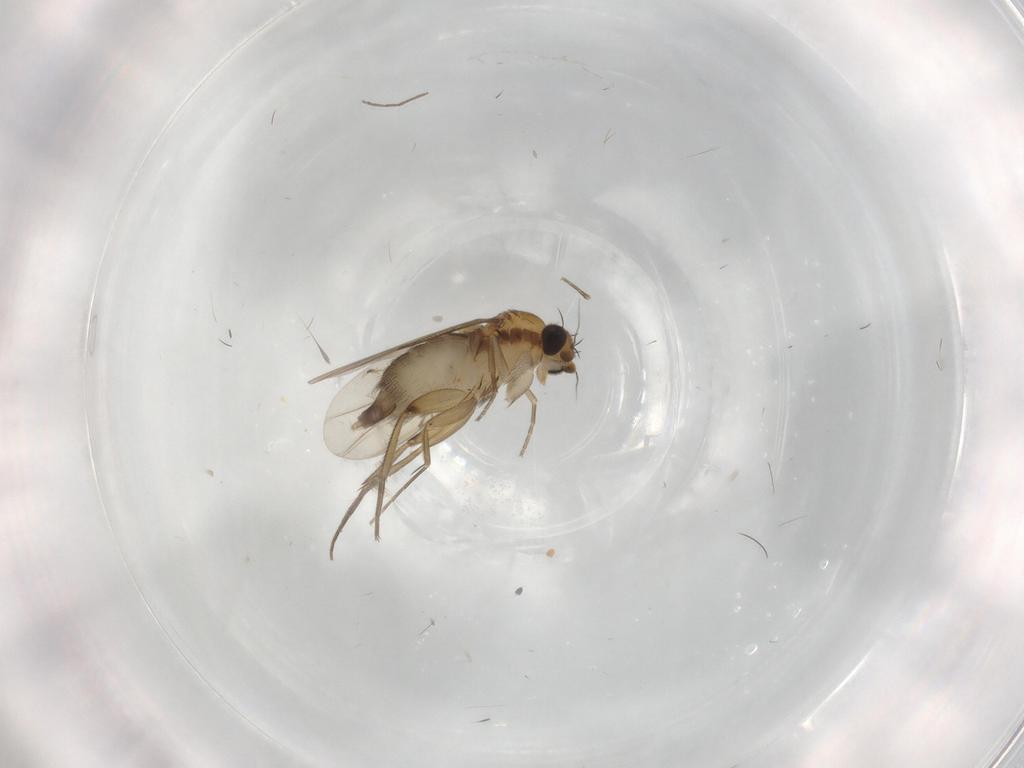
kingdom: Animalia
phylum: Arthropoda
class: Insecta
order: Diptera
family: Phoridae
